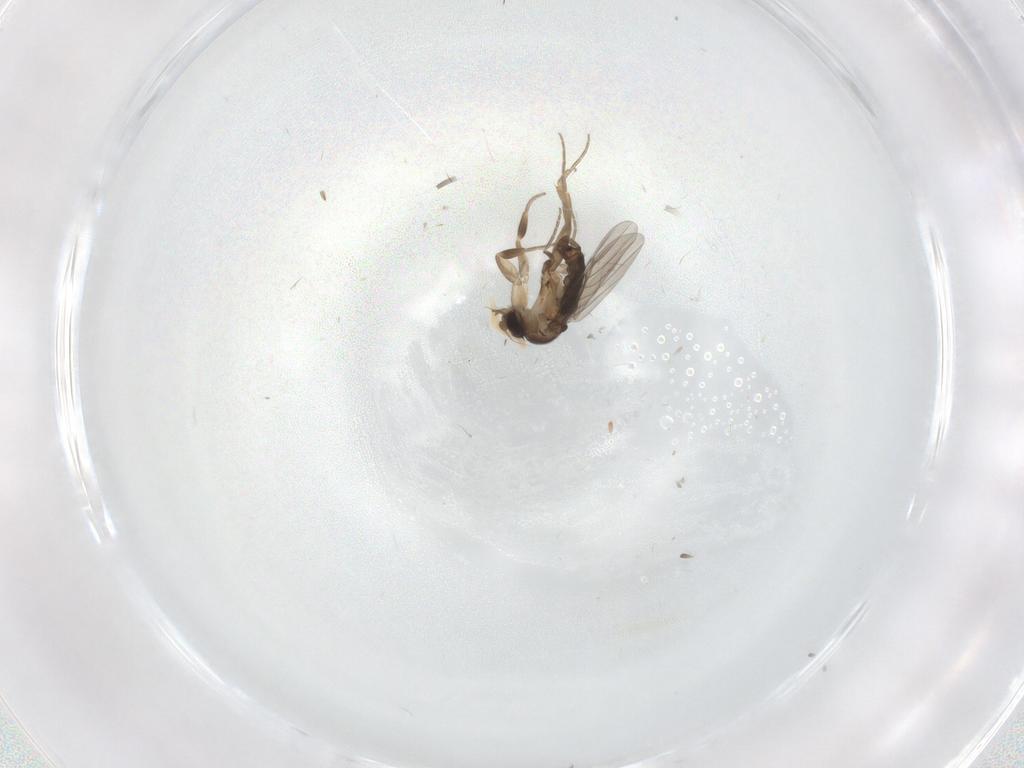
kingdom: Animalia
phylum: Arthropoda
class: Insecta
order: Diptera
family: Phoridae
